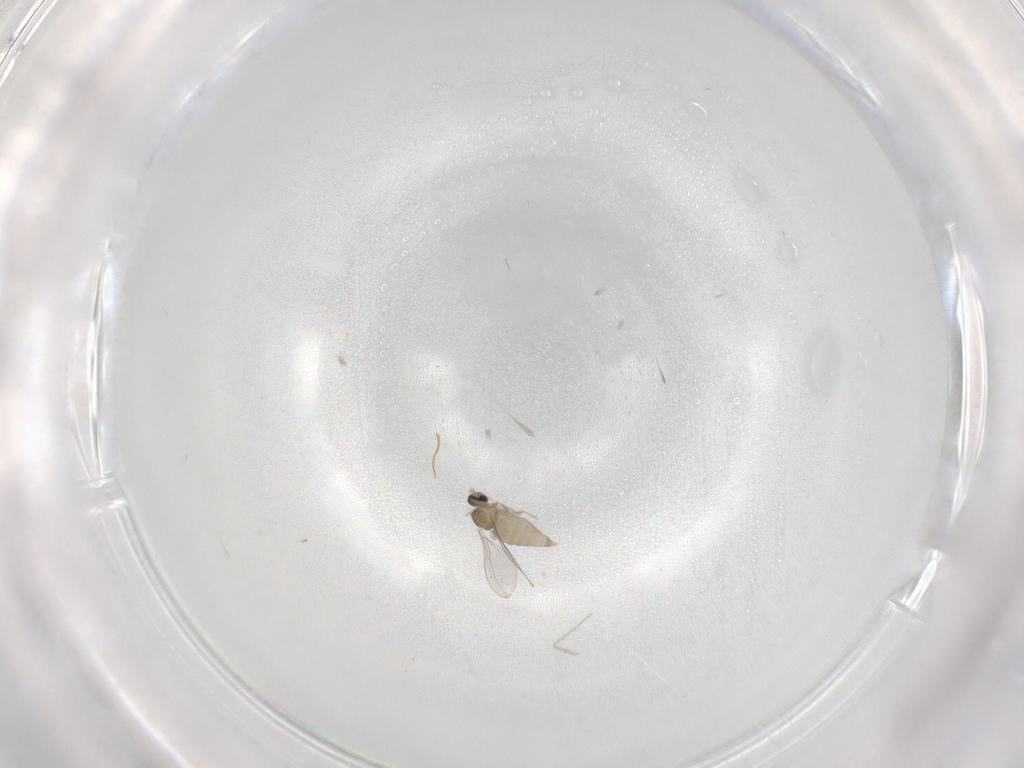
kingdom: Animalia
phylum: Arthropoda
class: Insecta
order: Diptera
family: Cecidomyiidae
